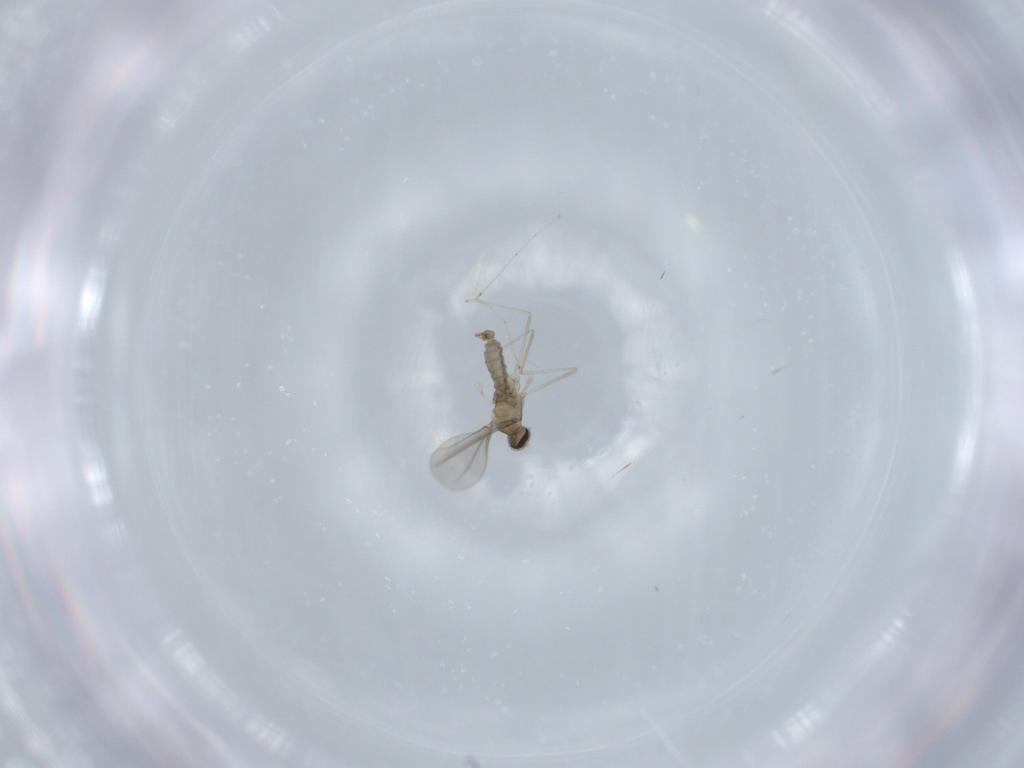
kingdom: Animalia
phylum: Arthropoda
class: Insecta
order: Diptera
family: Cecidomyiidae
